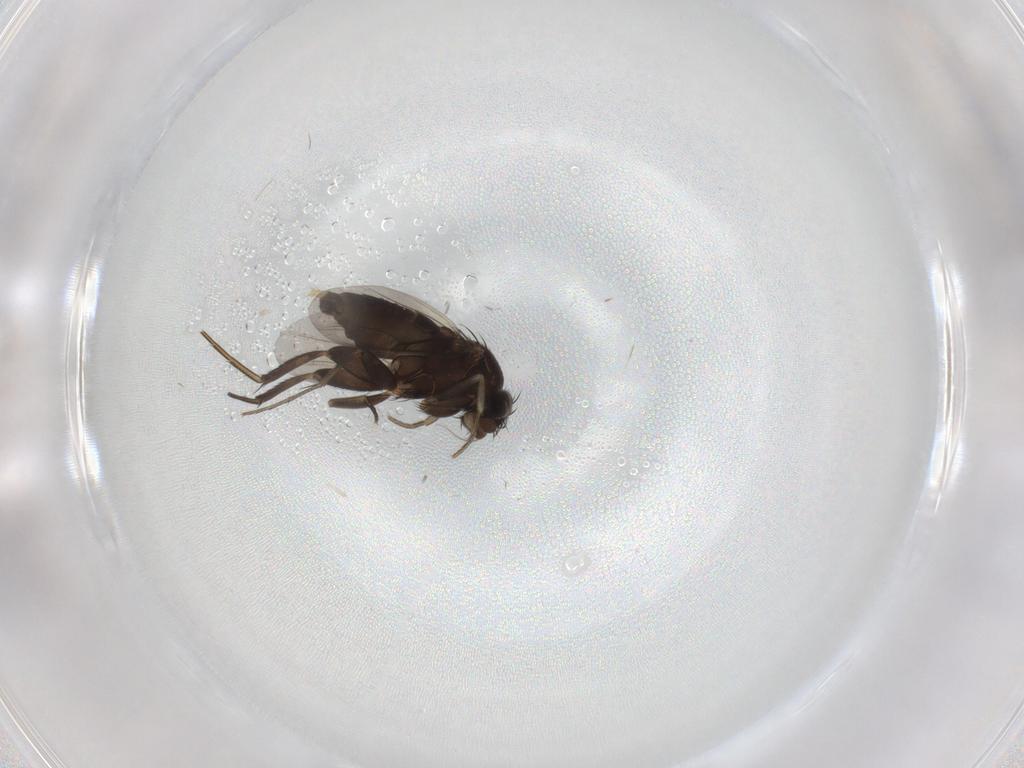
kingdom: Animalia
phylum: Arthropoda
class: Insecta
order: Diptera
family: Phoridae
